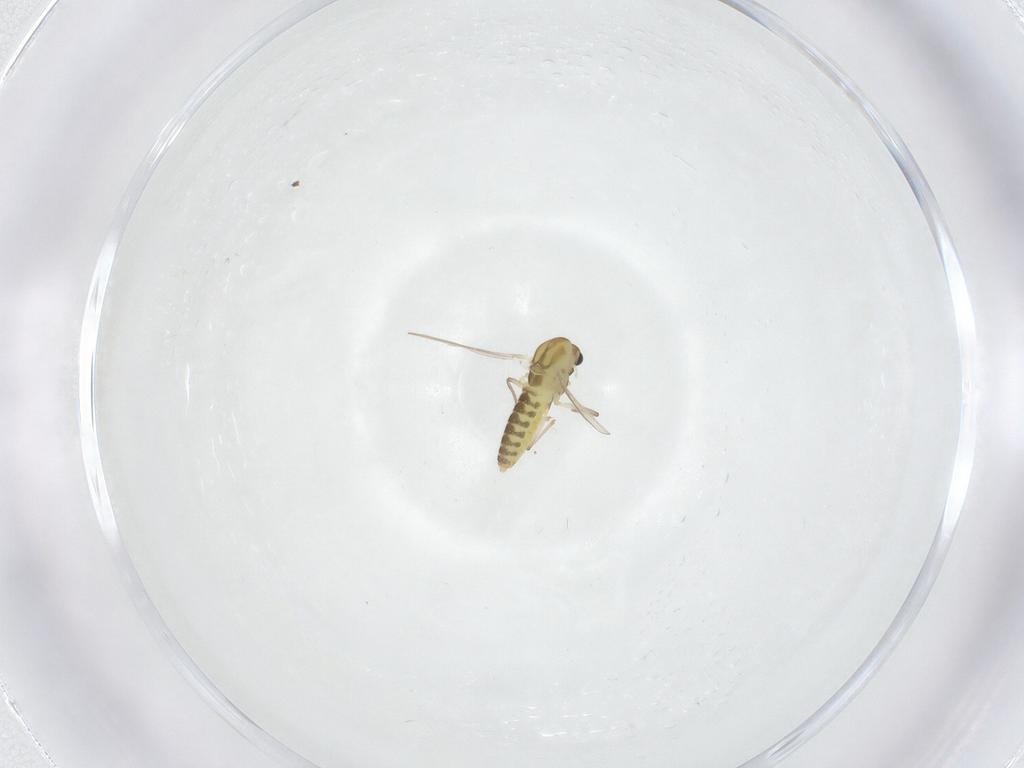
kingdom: Animalia
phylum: Arthropoda
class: Insecta
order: Diptera
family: Chironomidae
